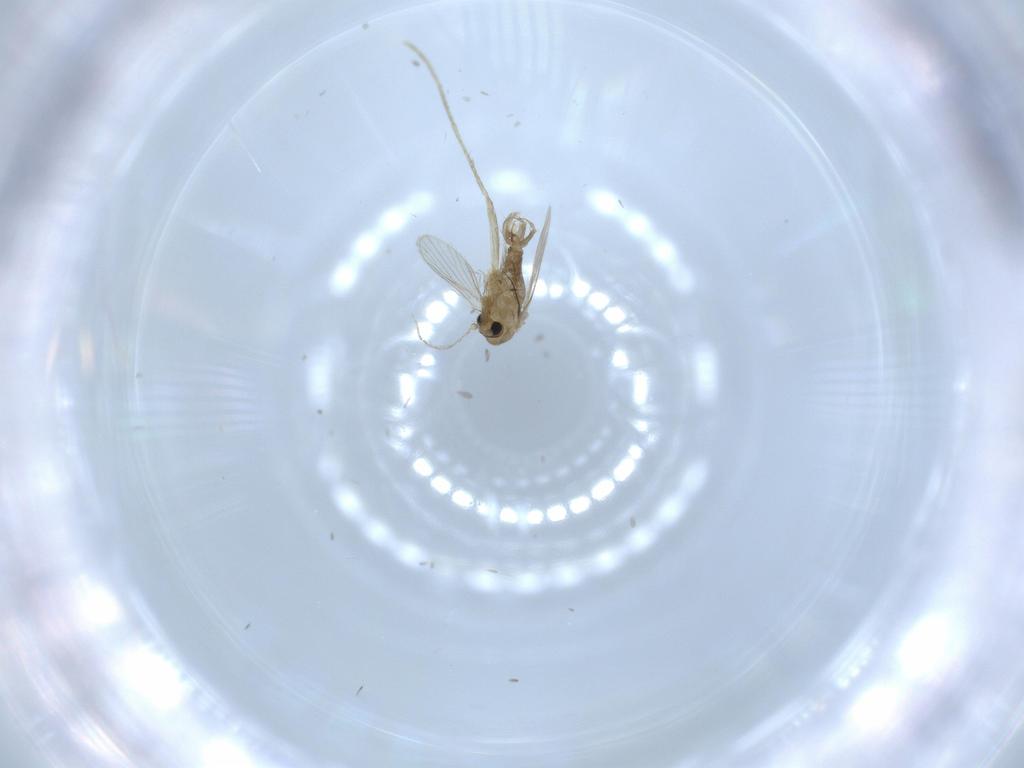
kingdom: Animalia
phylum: Arthropoda
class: Insecta
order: Diptera
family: Psychodidae
